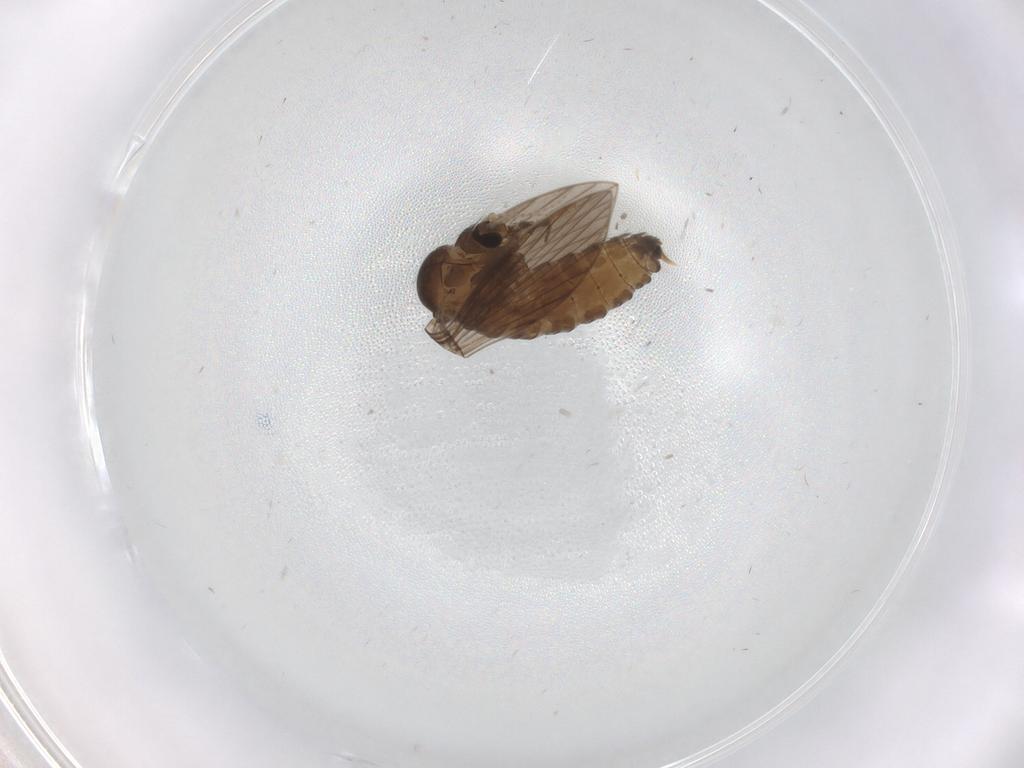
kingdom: Animalia
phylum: Arthropoda
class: Insecta
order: Diptera
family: Psychodidae
